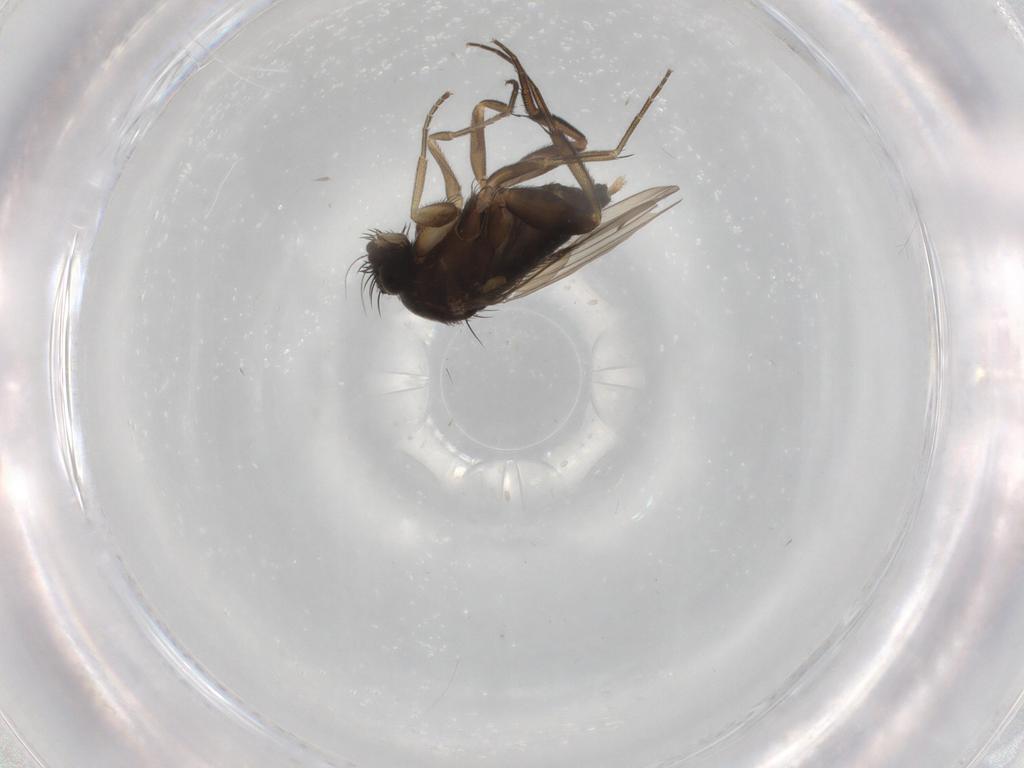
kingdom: Animalia
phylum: Arthropoda
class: Insecta
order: Diptera
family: Phoridae
